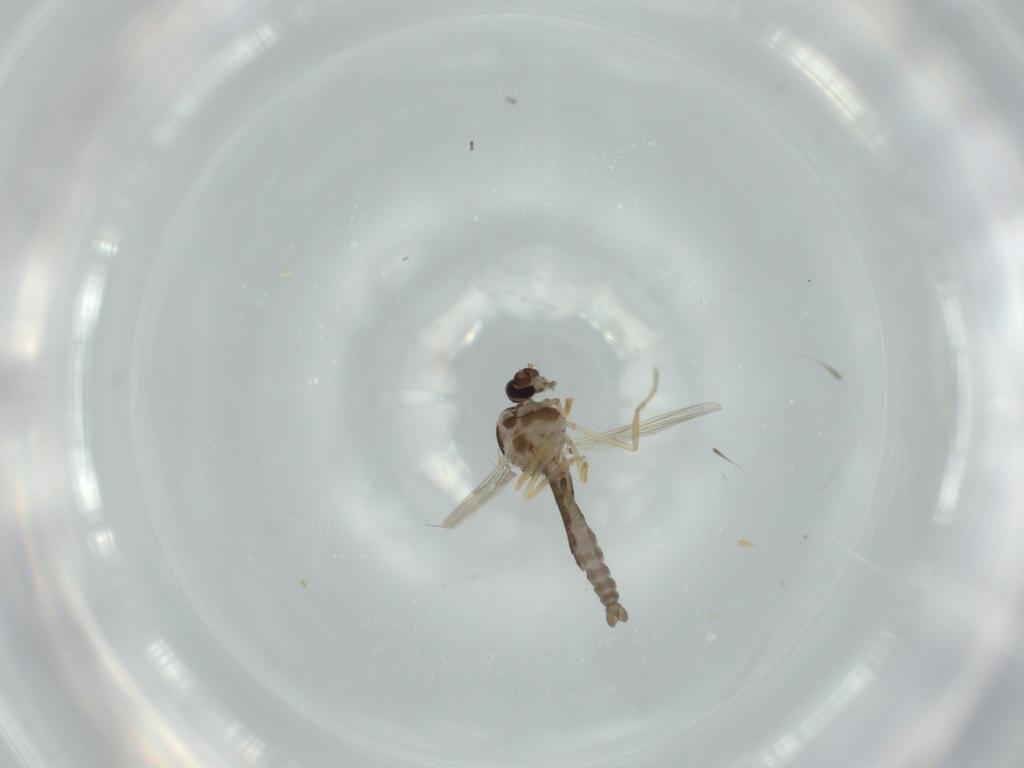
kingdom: Animalia
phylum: Arthropoda
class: Insecta
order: Diptera
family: Ceratopogonidae
